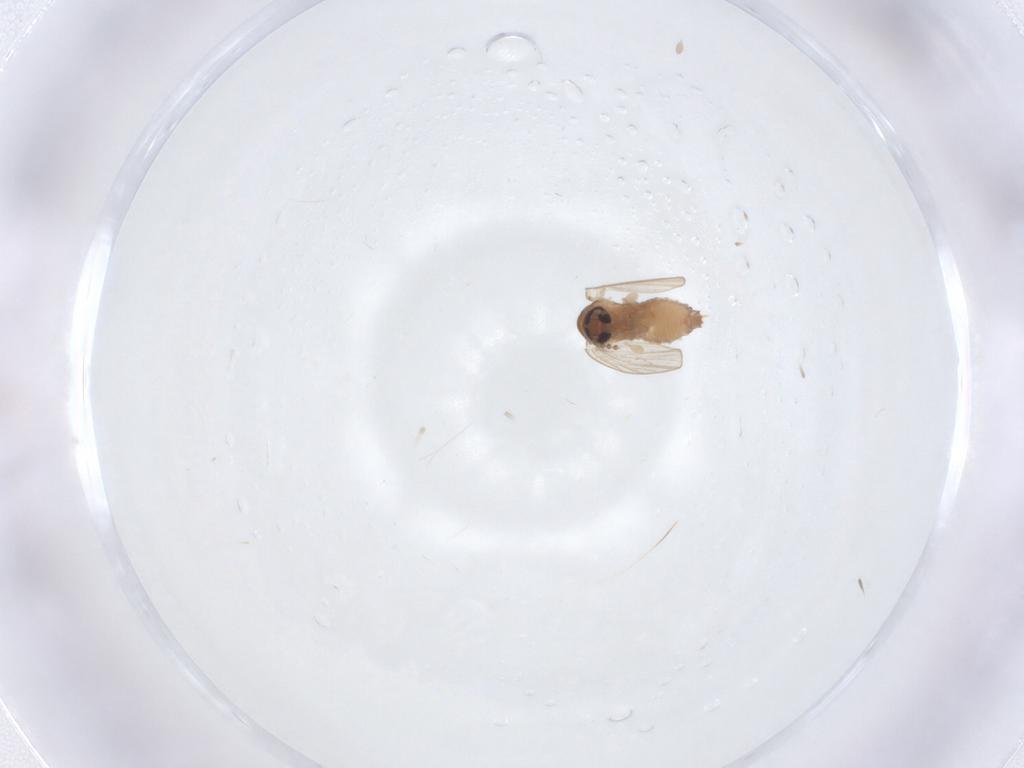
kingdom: Animalia
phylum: Arthropoda
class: Insecta
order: Diptera
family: Psychodidae
